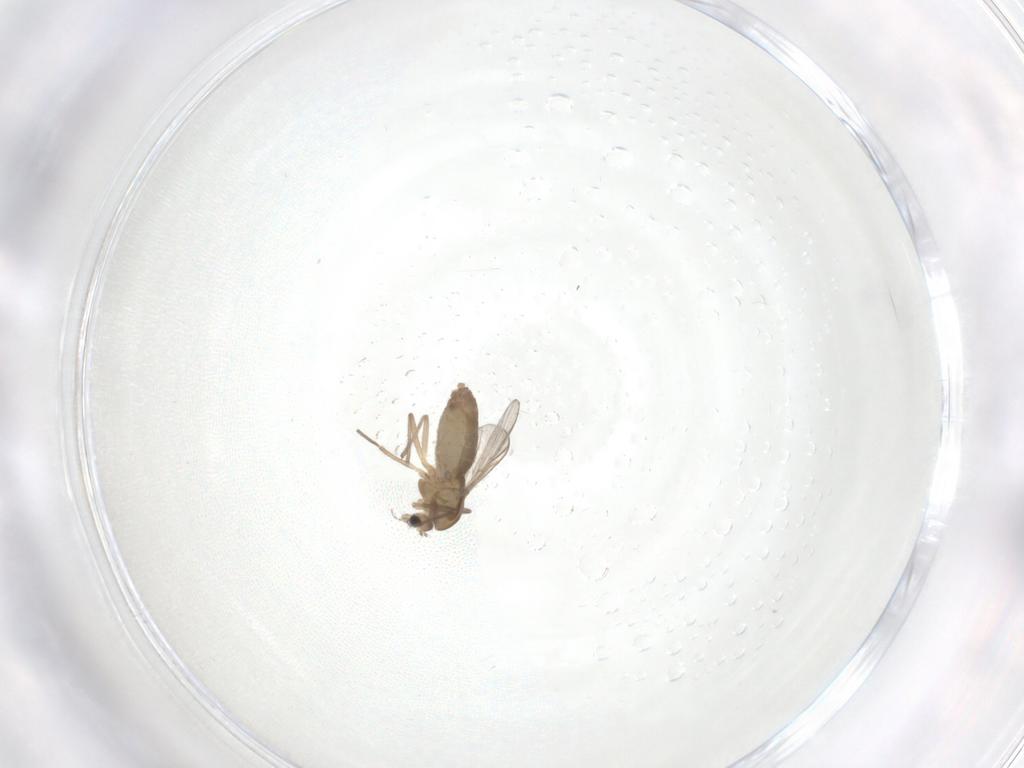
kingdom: Animalia
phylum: Arthropoda
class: Insecta
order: Diptera
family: Chironomidae
